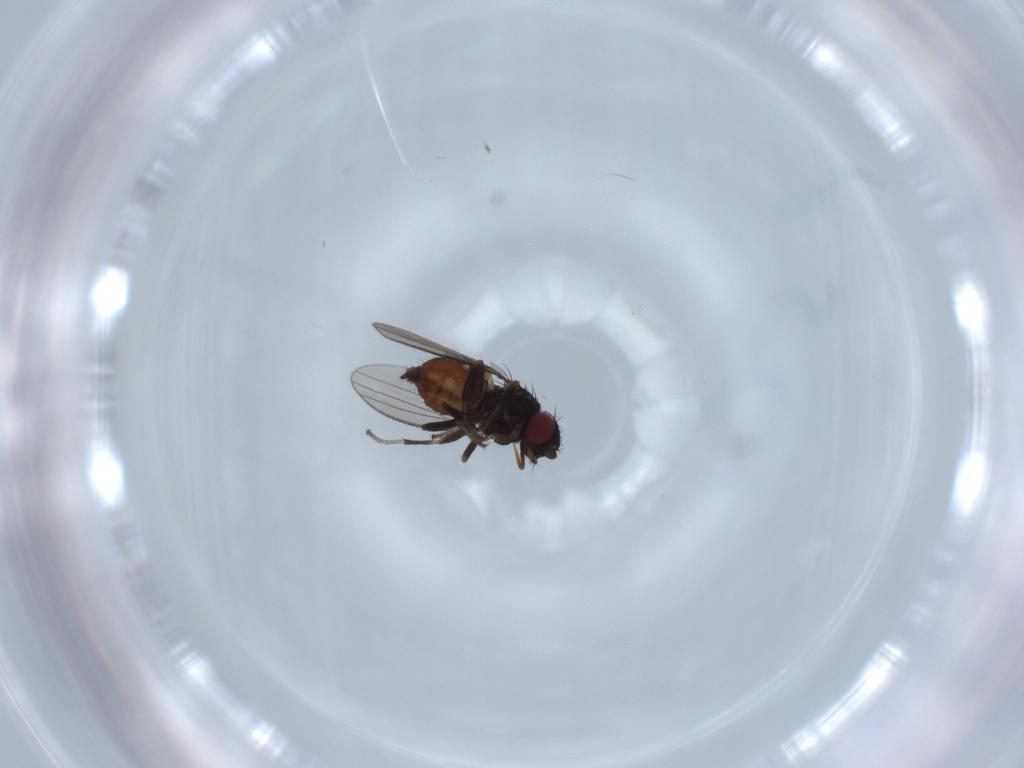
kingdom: Animalia
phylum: Arthropoda
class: Insecta
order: Diptera
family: Milichiidae
